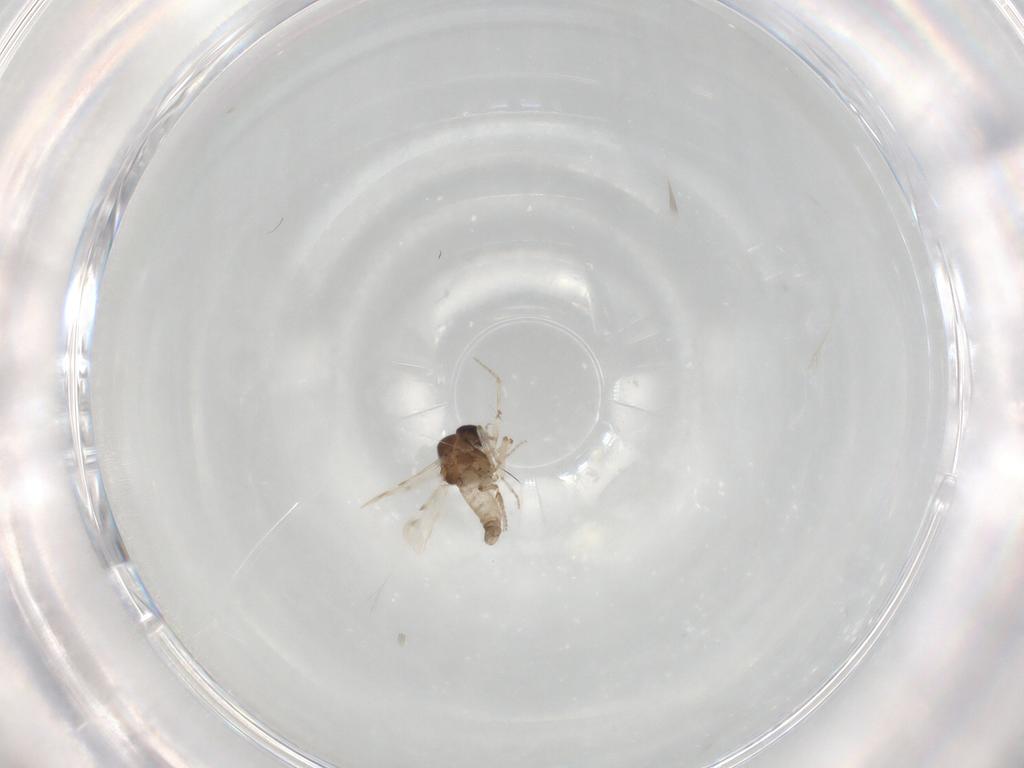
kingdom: Animalia
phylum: Arthropoda
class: Insecta
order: Diptera
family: Ceratopogonidae
